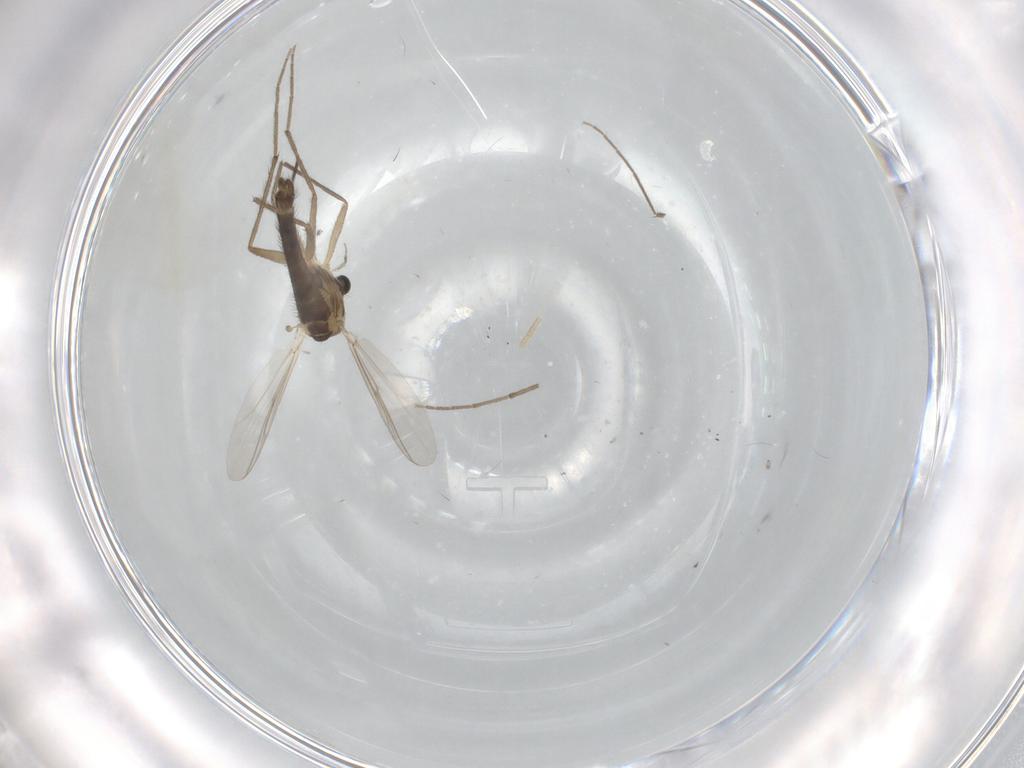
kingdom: Animalia
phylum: Arthropoda
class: Insecta
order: Diptera
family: Chironomidae
